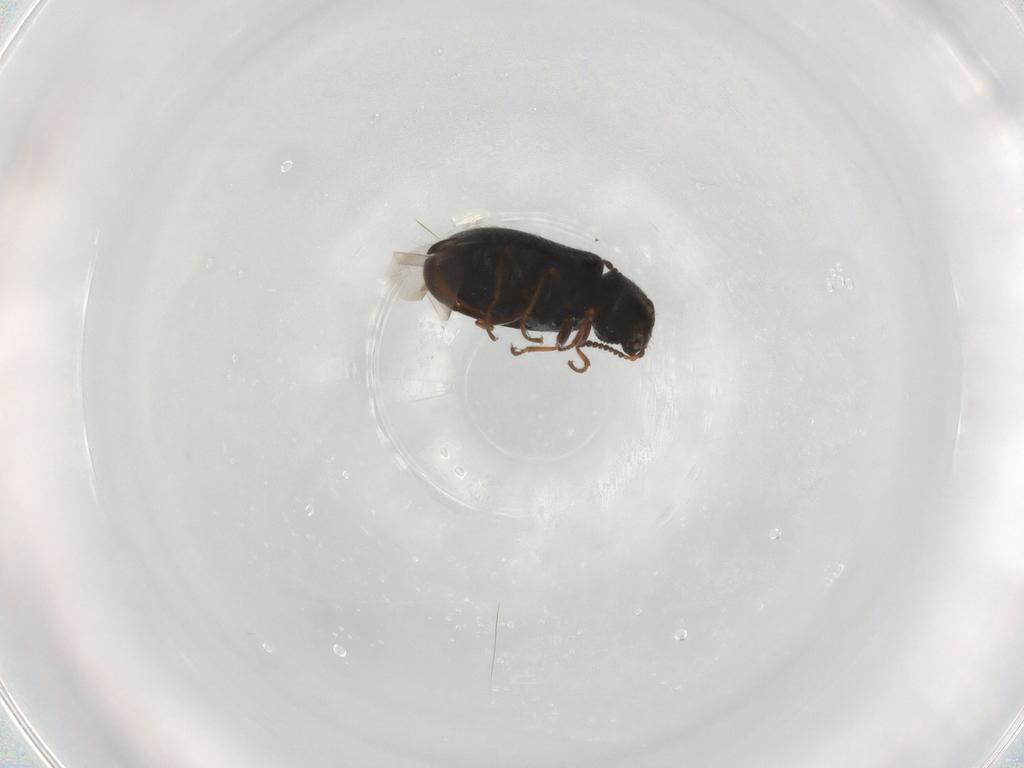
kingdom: Animalia
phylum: Arthropoda
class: Insecta
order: Coleoptera
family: Melyridae
